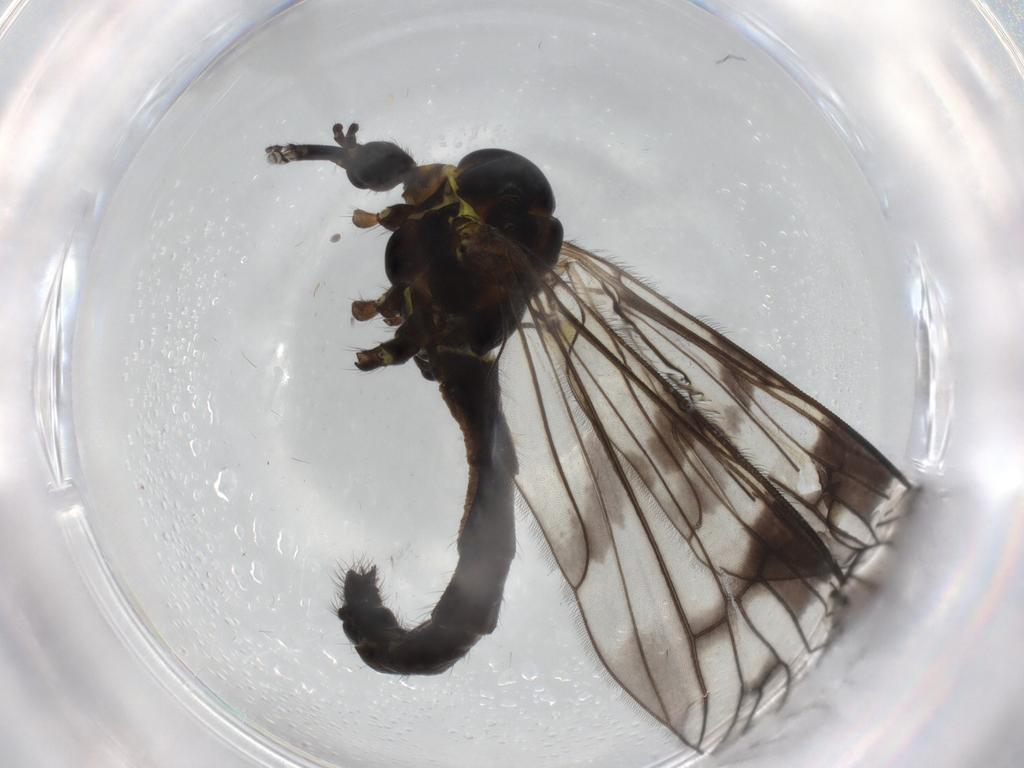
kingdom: Animalia
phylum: Arthropoda
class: Insecta
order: Diptera
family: Limoniidae
